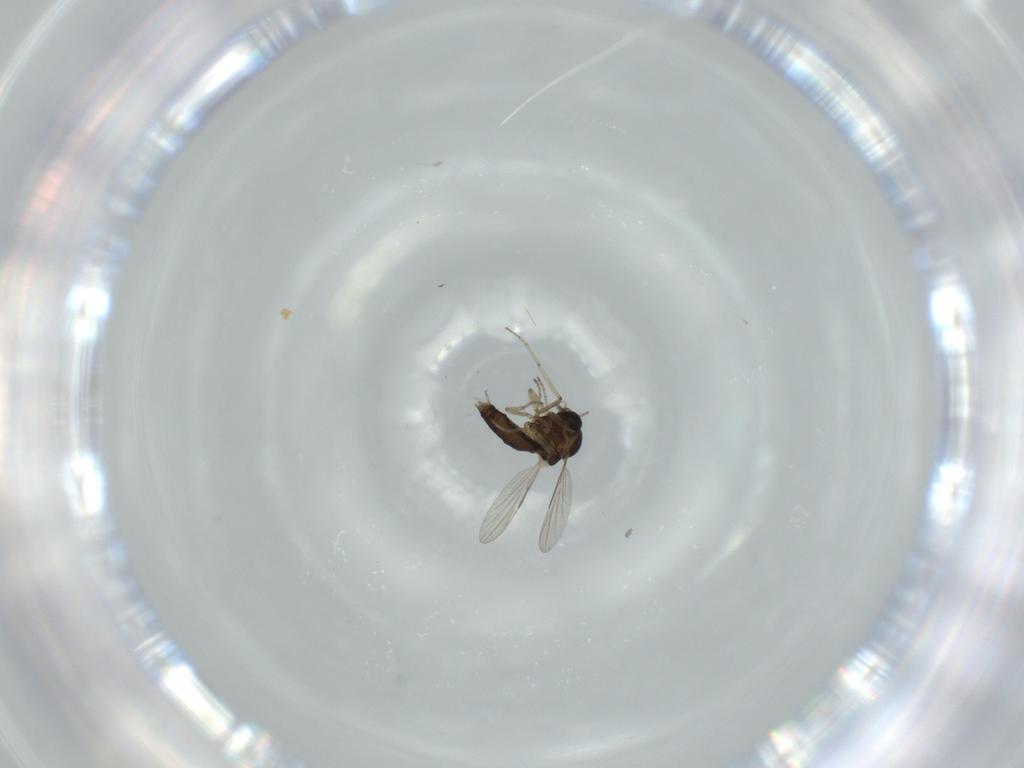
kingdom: Animalia
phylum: Arthropoda
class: Insecta
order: Diptera
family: Ceratopogonidae
